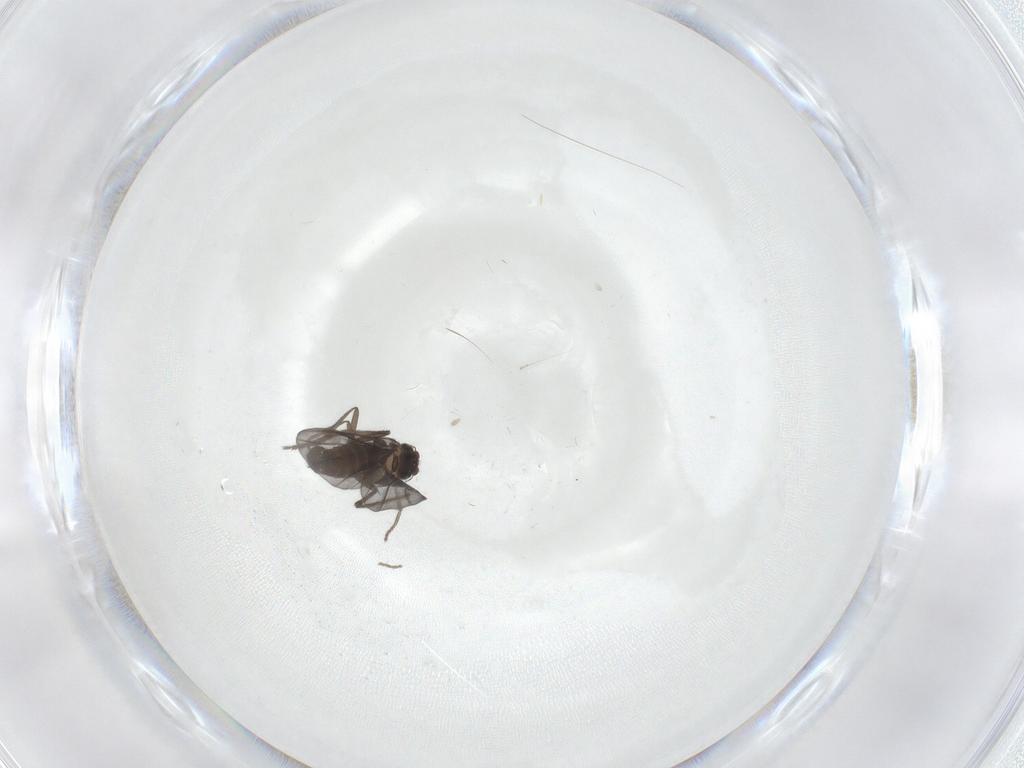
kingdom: Animalia
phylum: Arthropoda
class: Insecta
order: Diptera
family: Phoridae
